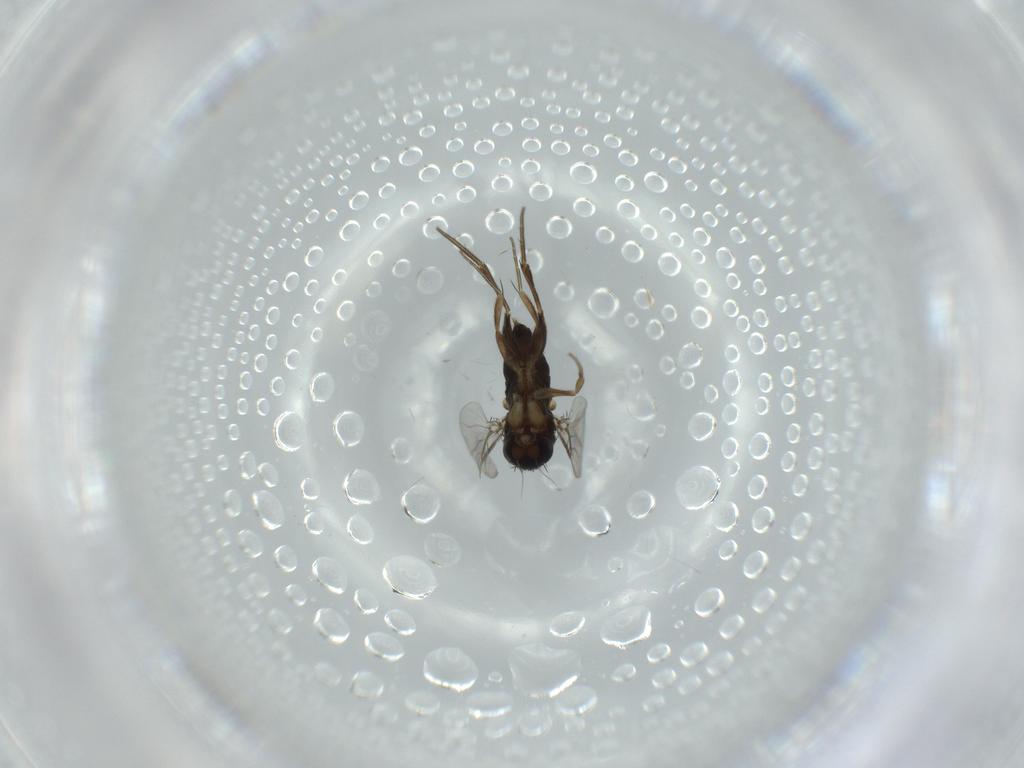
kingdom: Animalia
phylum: Arthropoda
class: Insecta
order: Diptera
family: Phoridae
